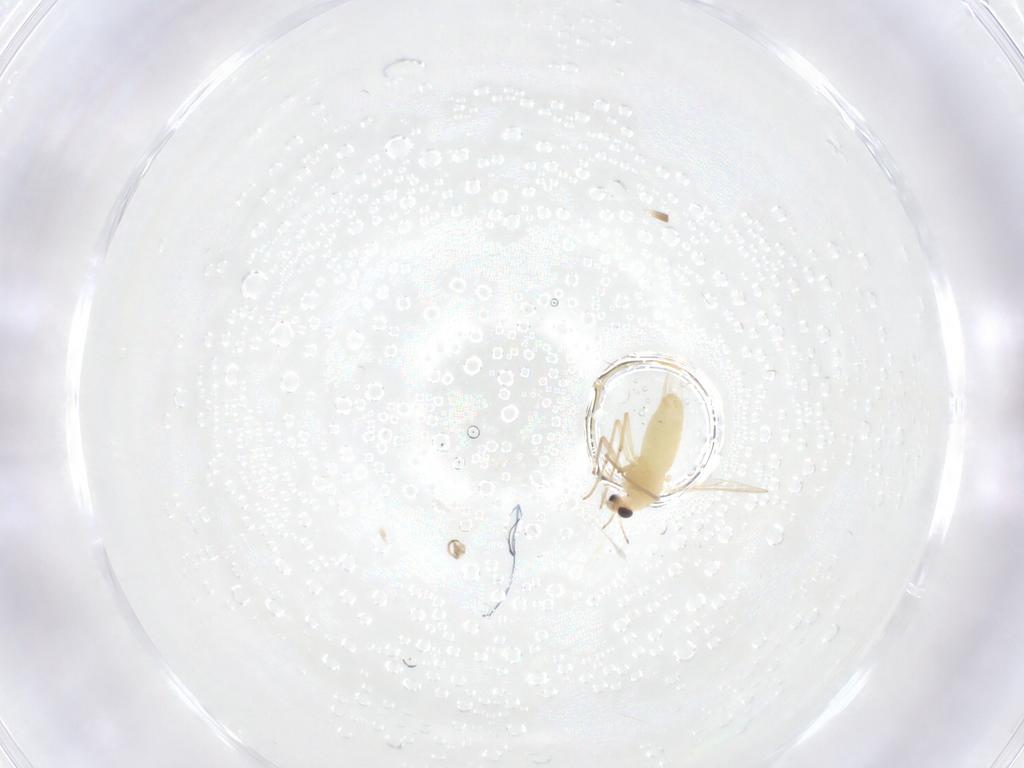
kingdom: Animalia
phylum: Arthropoda
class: Insecta
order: Diptera
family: Chironomidae
